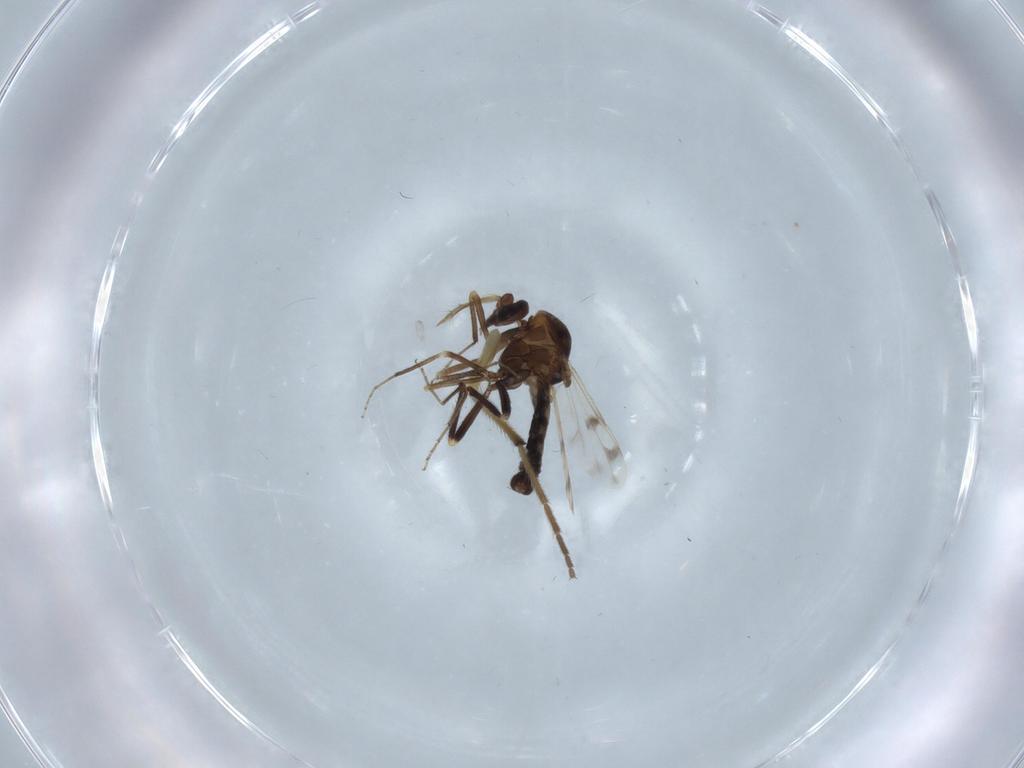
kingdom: Animalia
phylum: Arthropoda
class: Insecta
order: Diptera
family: Ceratopogonidae
